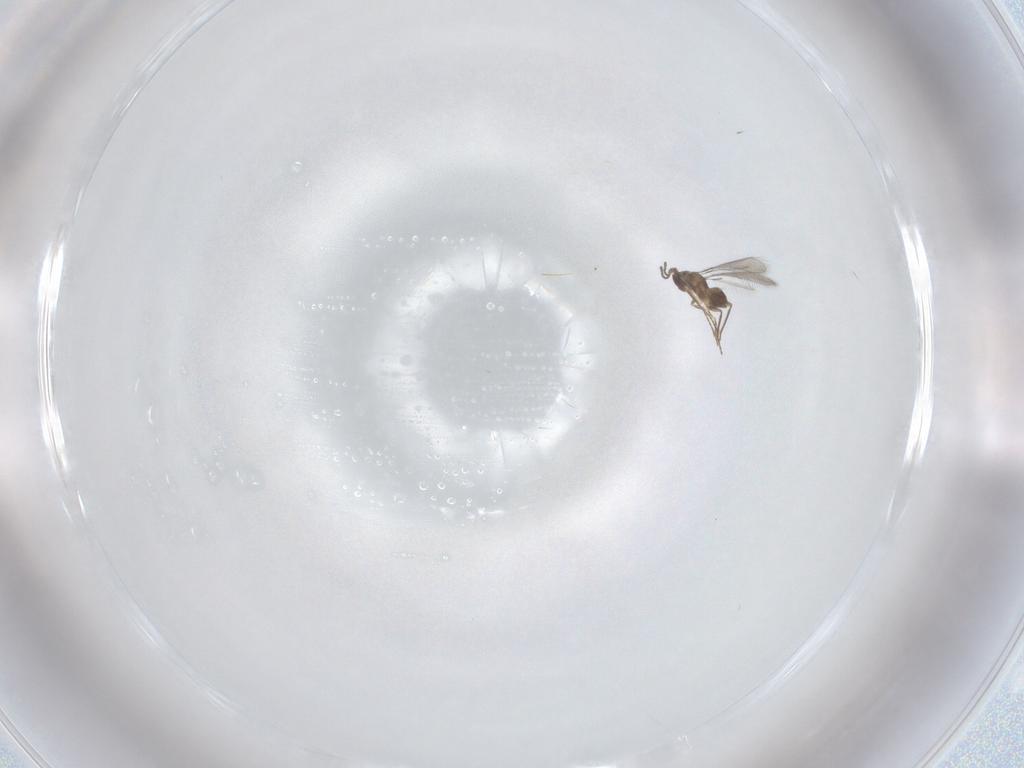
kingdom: Animalia
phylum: Arthropoda
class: Insecta
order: Hymenoptera
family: Mymaridae
